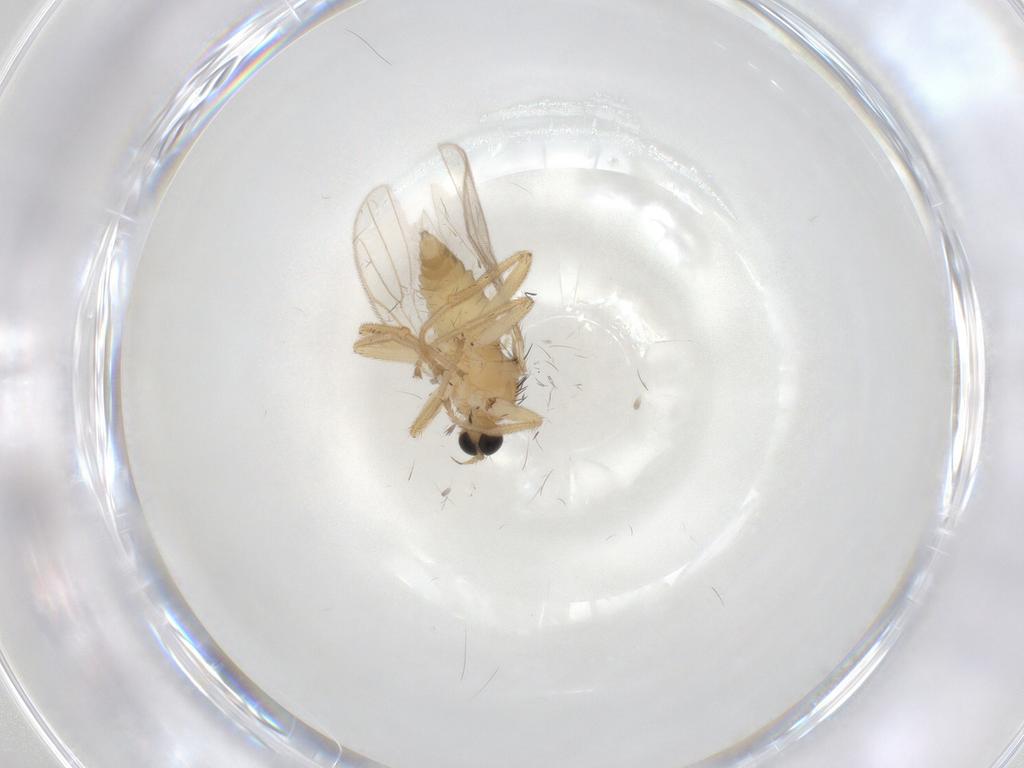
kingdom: Animalia
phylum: Arthropoda
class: Insecta
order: Diptera
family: Hybotidae
